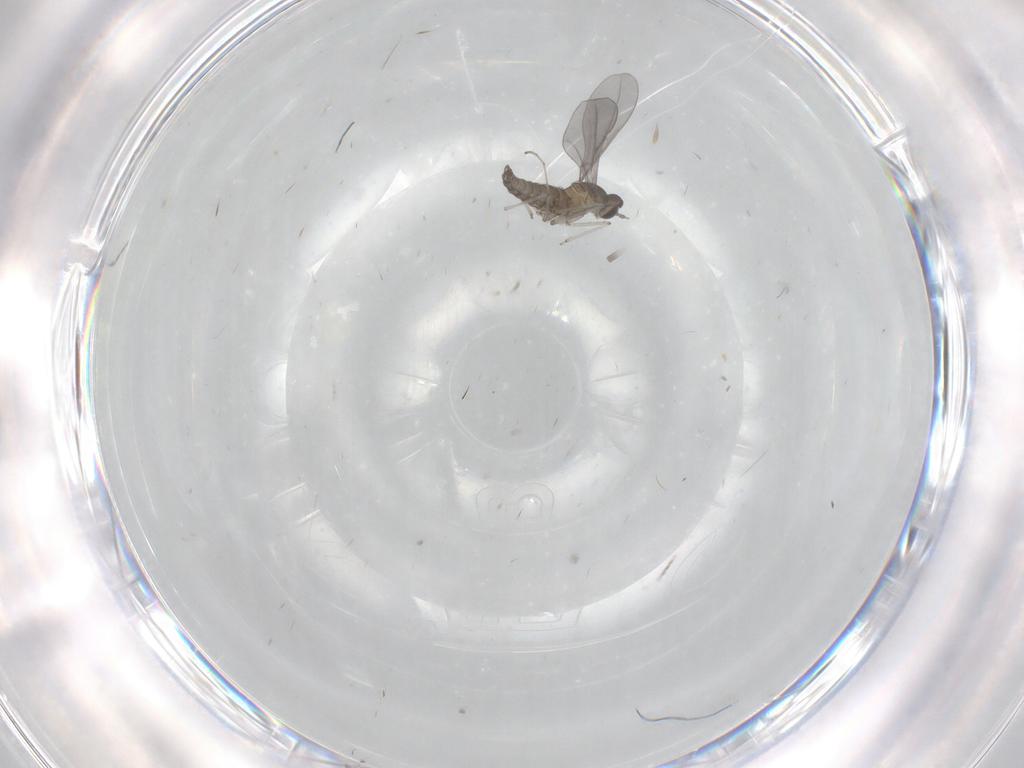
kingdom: Animalia
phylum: Arthropoda
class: Insecta
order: Diptera
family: Cecidomyiidae
